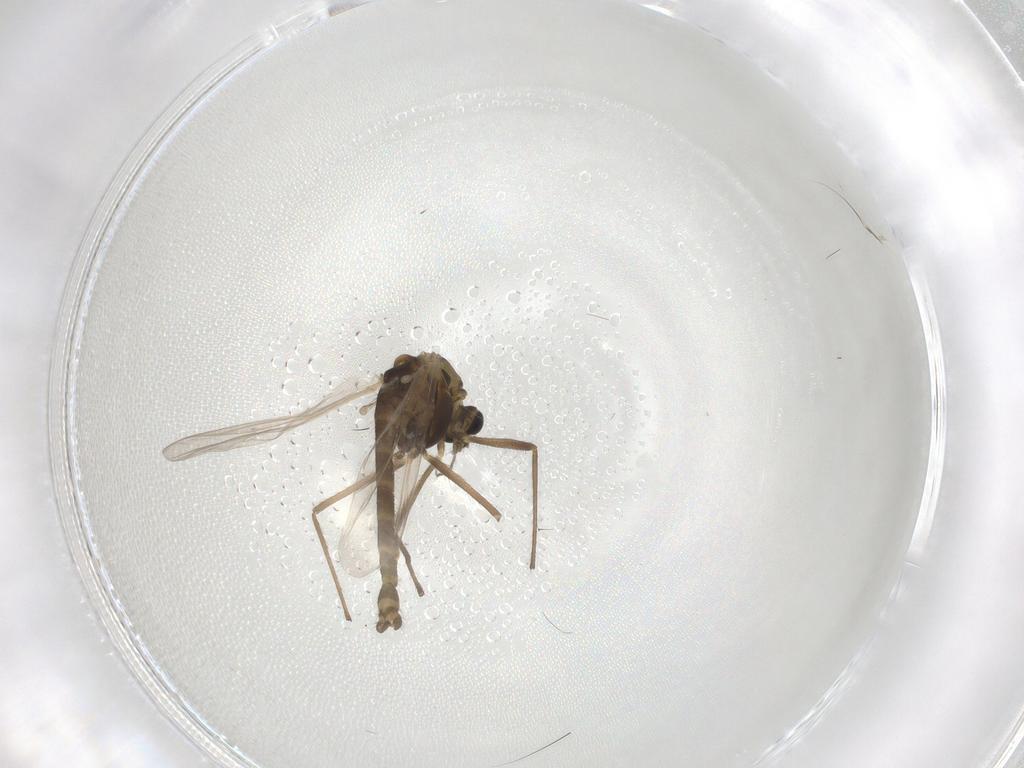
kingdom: Animalia
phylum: Arthropoda
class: Insecta
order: Diptera
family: Chironomidae
